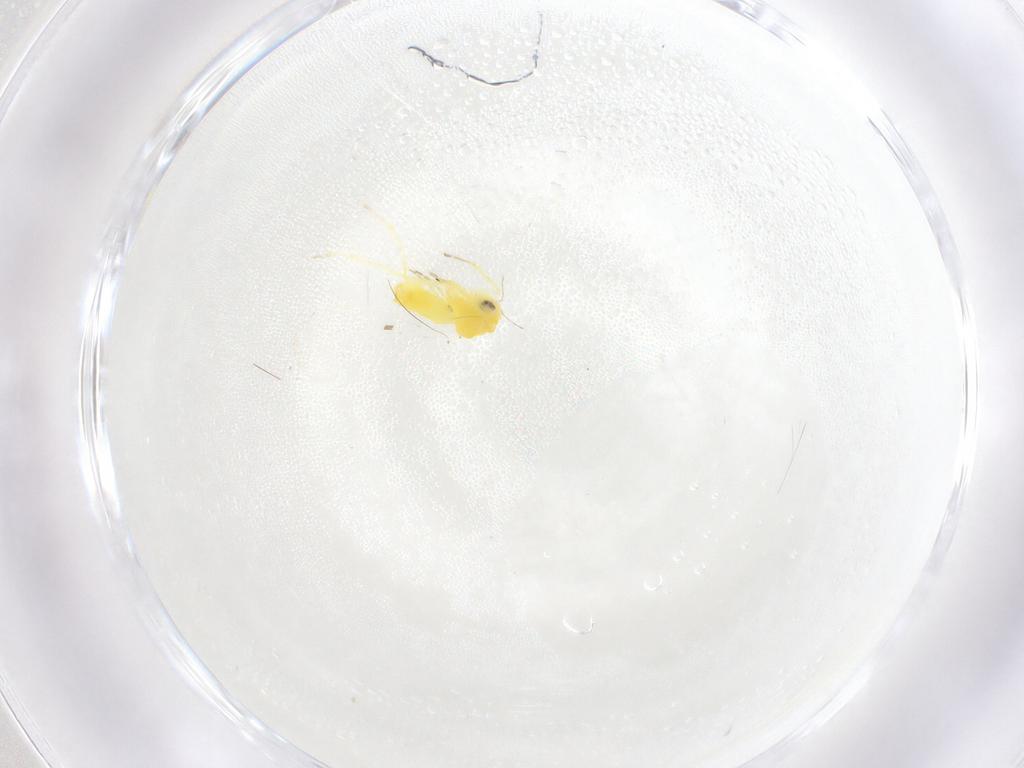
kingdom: Animalia
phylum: Arthropoda
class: Insecta
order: Hemiptera
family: Aleyrodidae
